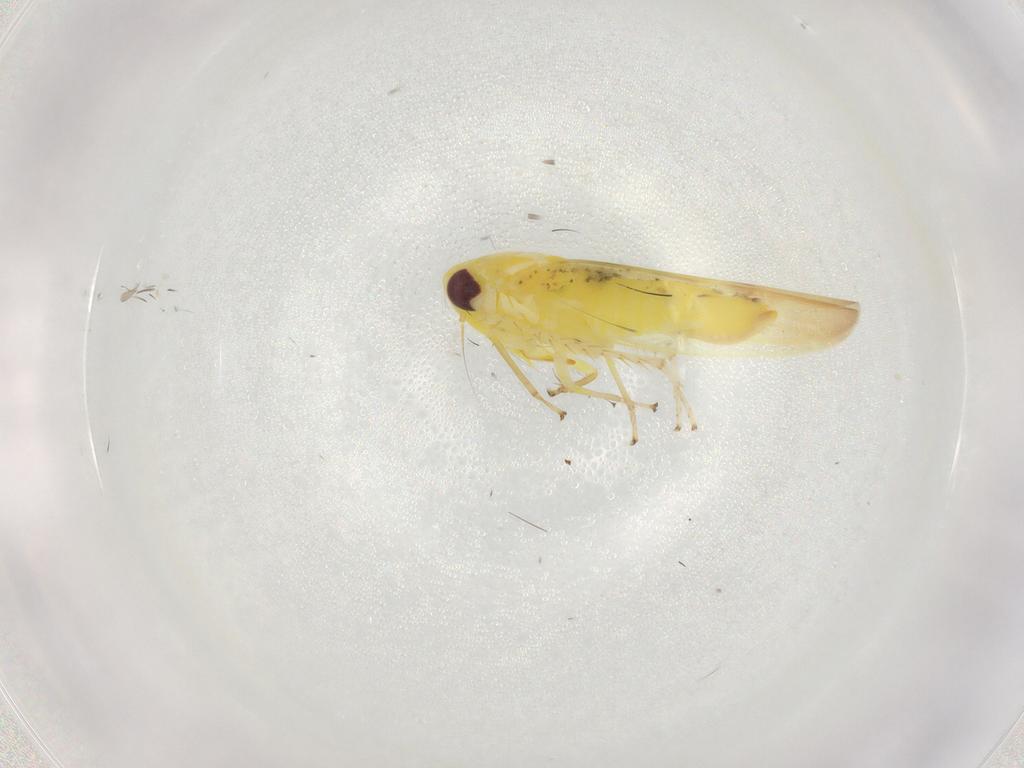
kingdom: Animalia
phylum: Arthropoda
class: Insecta
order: Hemiptera
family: Cicadellidae
